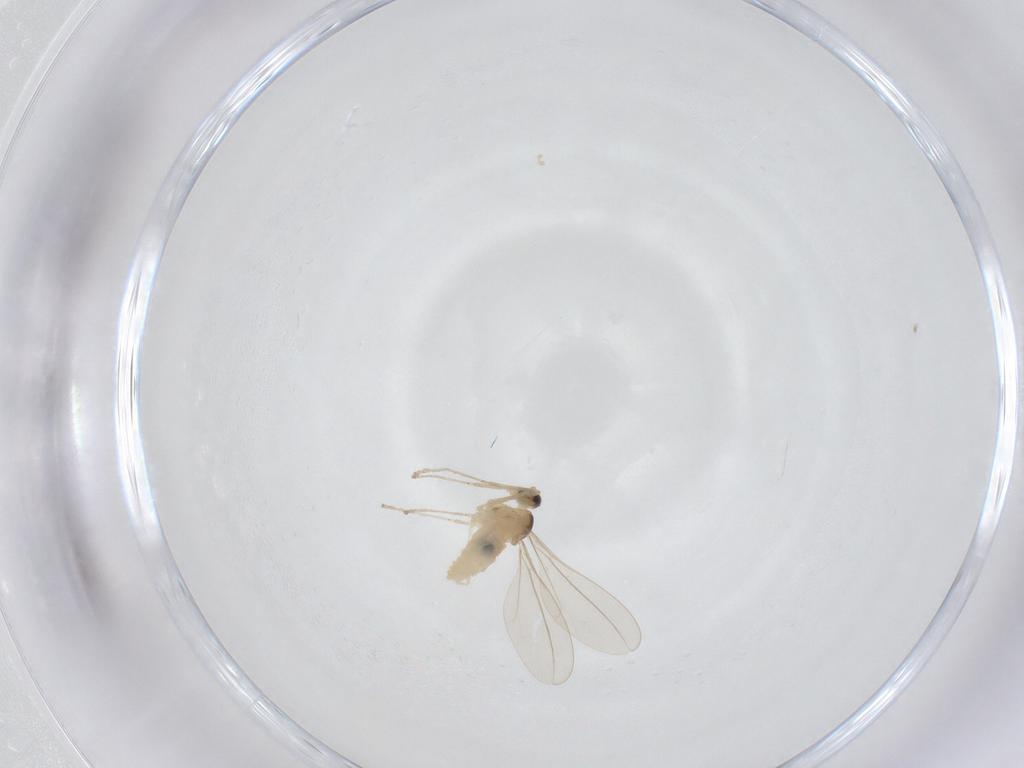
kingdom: Animalia
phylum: Arthropoda
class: Insecta
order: Diptera
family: Cecidomyiidae
